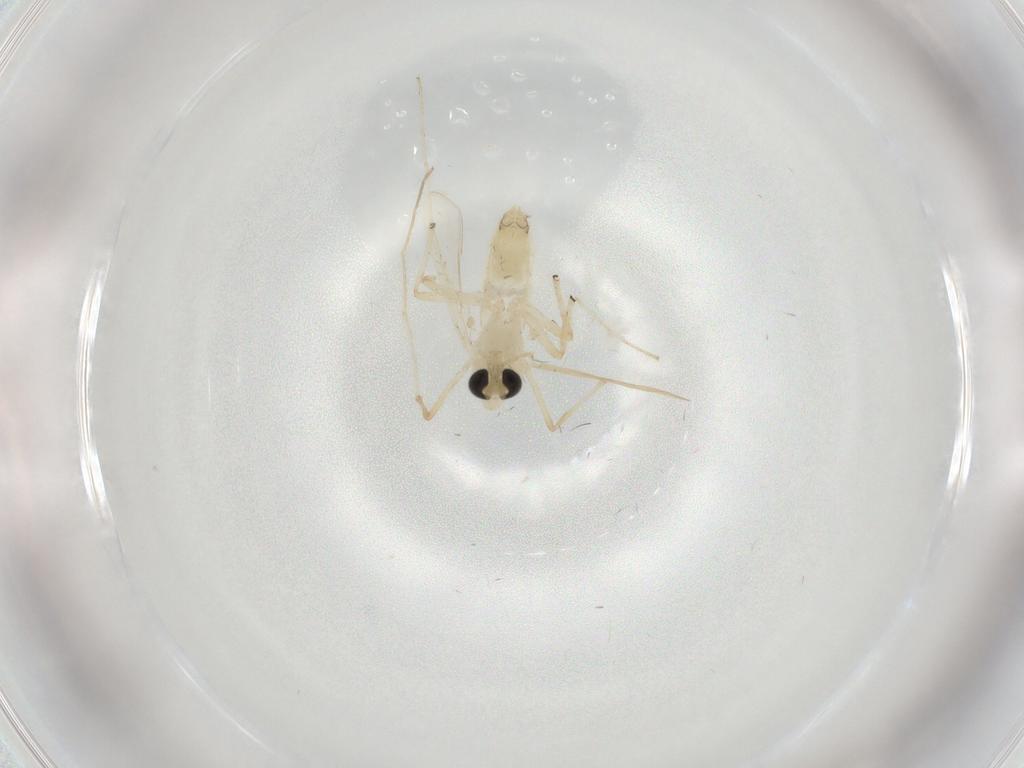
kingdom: Animalia
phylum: Arthropoda
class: Insecta
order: Diptera
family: Chironomidae
